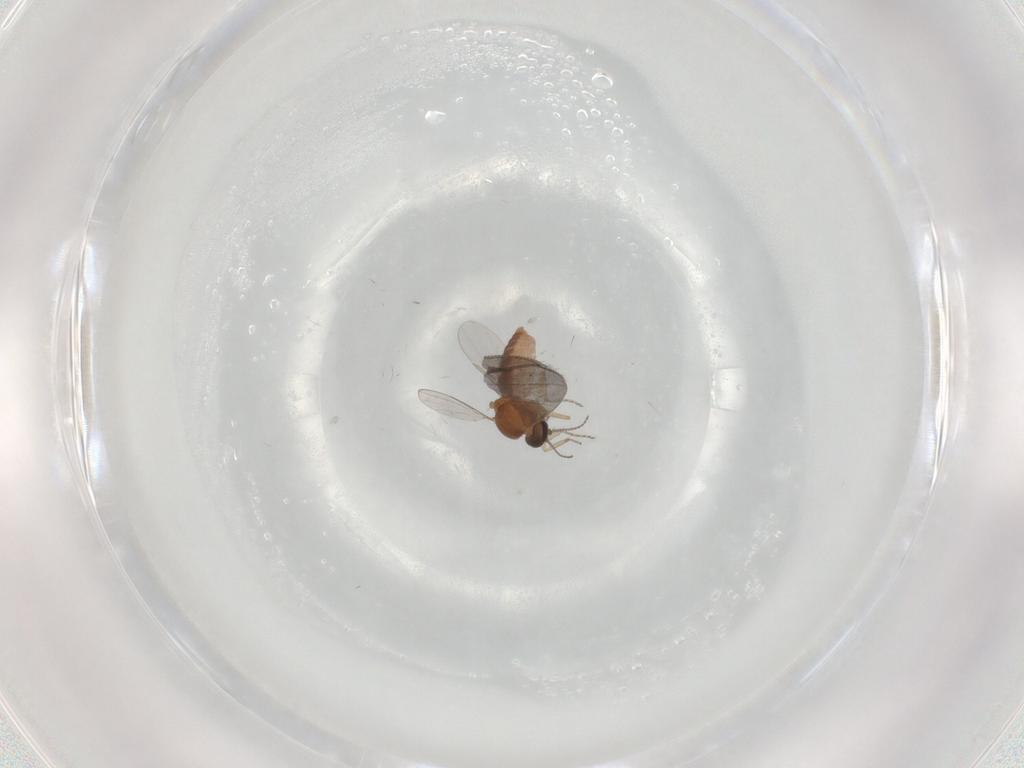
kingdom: Animalia
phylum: Arthropoda
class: Insecta
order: Diptera
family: Ceratopogonidae
